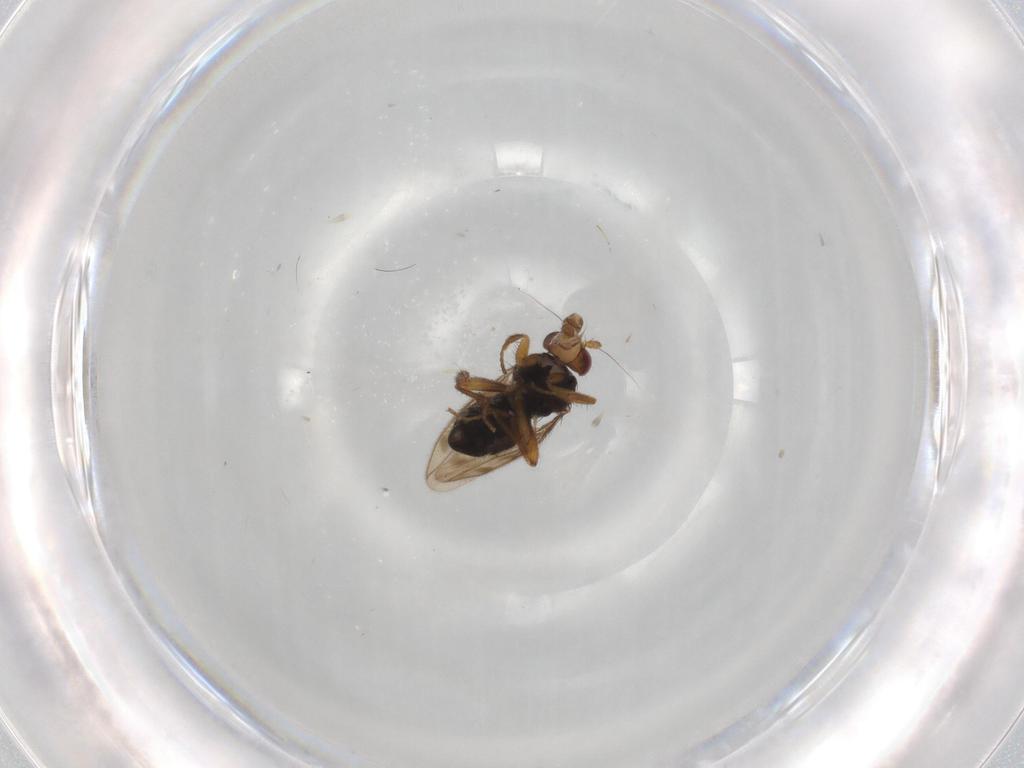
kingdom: Animalia
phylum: Arthropoda
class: Insecta
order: Diptera
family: Sphaeroceridae
